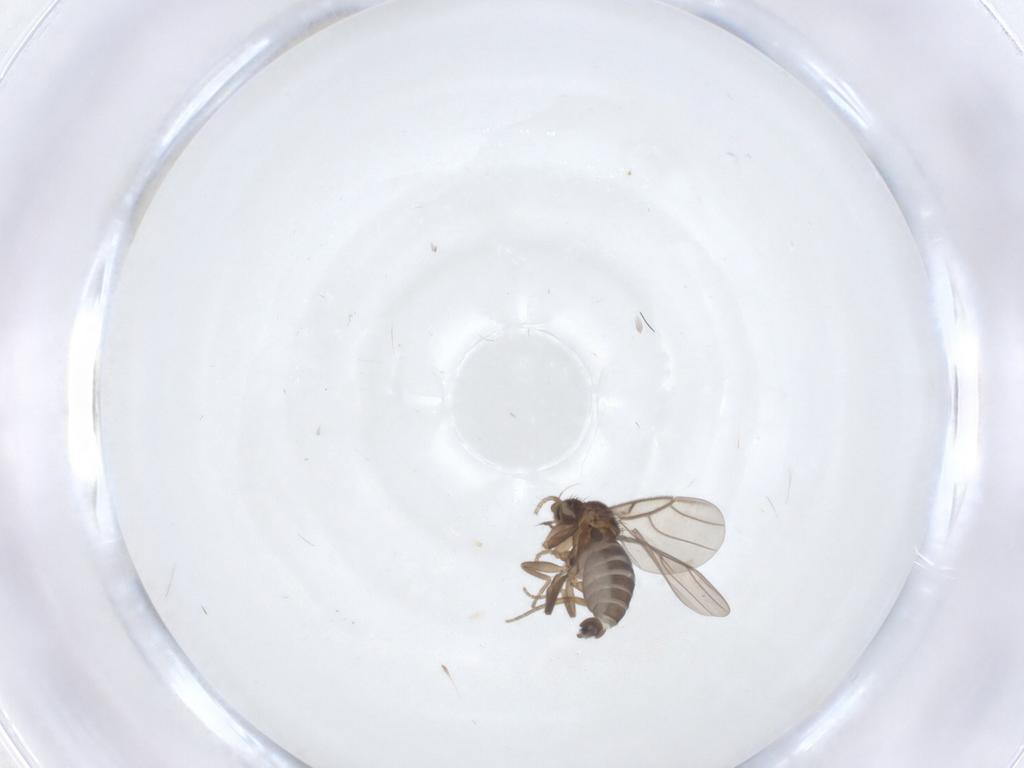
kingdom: Animalia
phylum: Arthropoda
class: Insecta
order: Diptera
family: Phoridae
